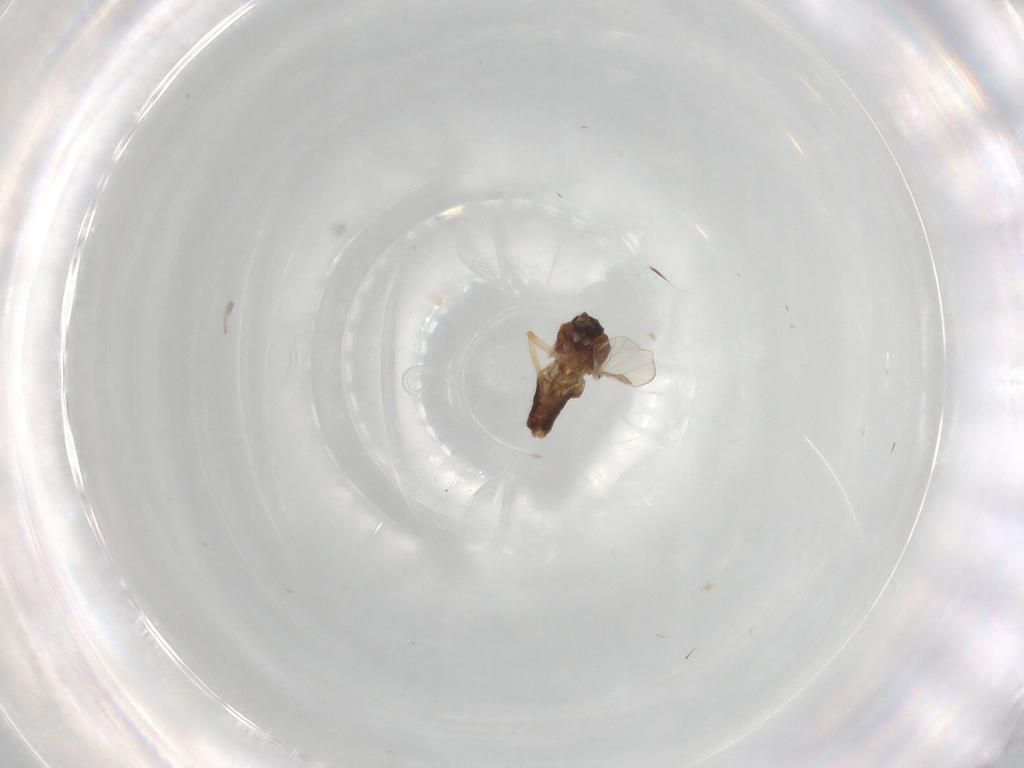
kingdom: Animalia
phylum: Arthropoda
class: Insecta
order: Diptera
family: Ceratopogonidae
